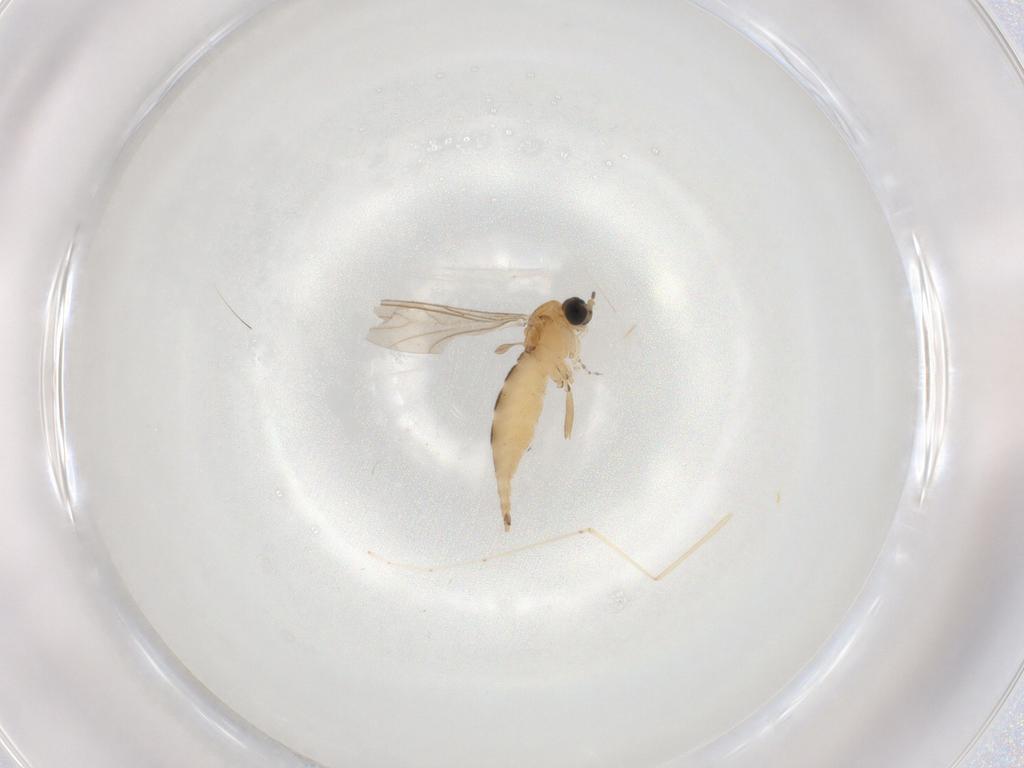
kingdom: Animalia
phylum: Arthropoda
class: Insecta
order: Diptera
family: Sciaridae
